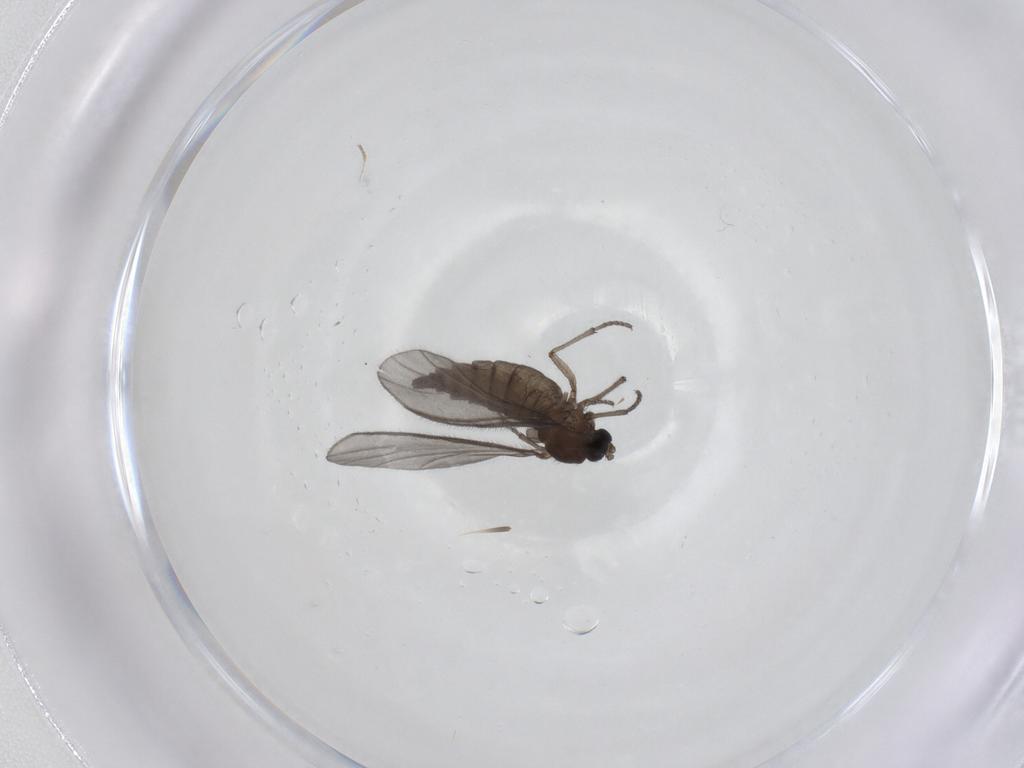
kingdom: Animalia
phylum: Arthropoda
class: Insecta
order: Diptera
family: Sciaridae
